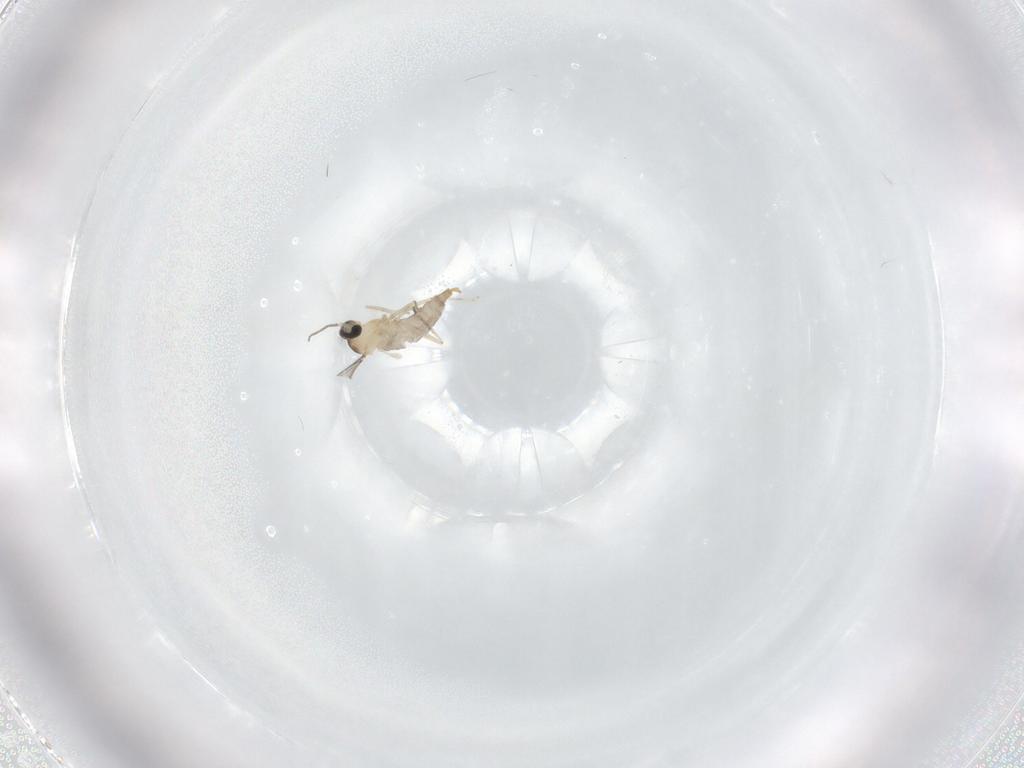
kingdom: Animalia
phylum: Arthropoda
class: Insecta
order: Diptera
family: Cecidomyiidae
